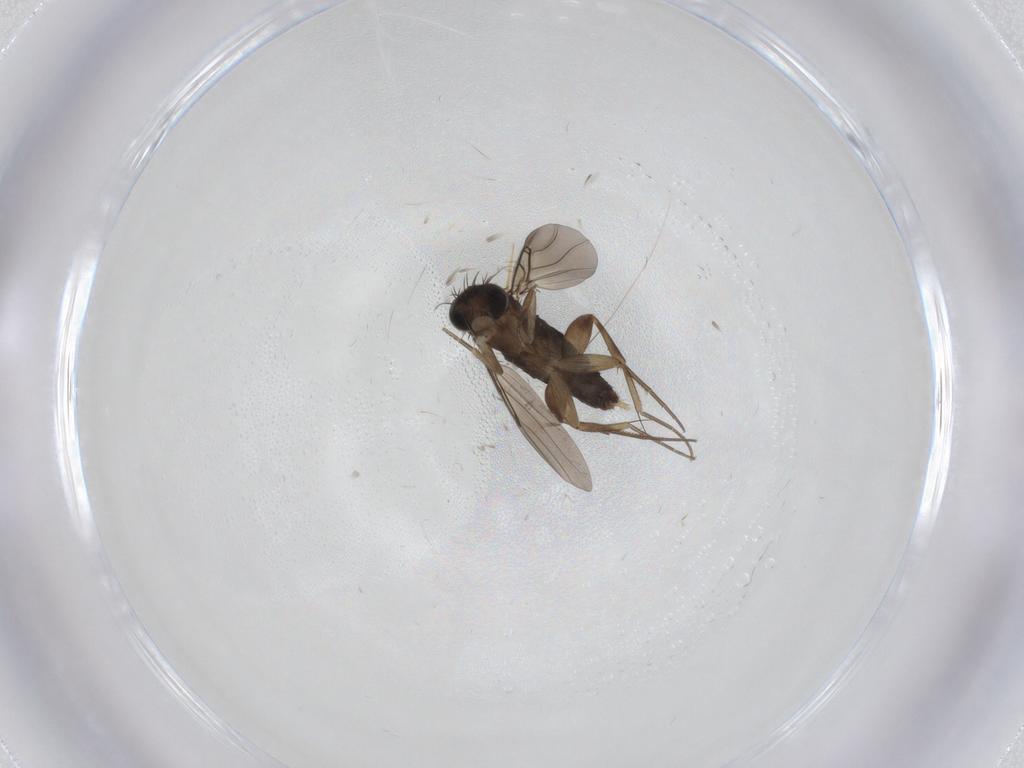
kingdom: Animalia
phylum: Arthropoda
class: Insecta
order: Diptera
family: Phoridae
